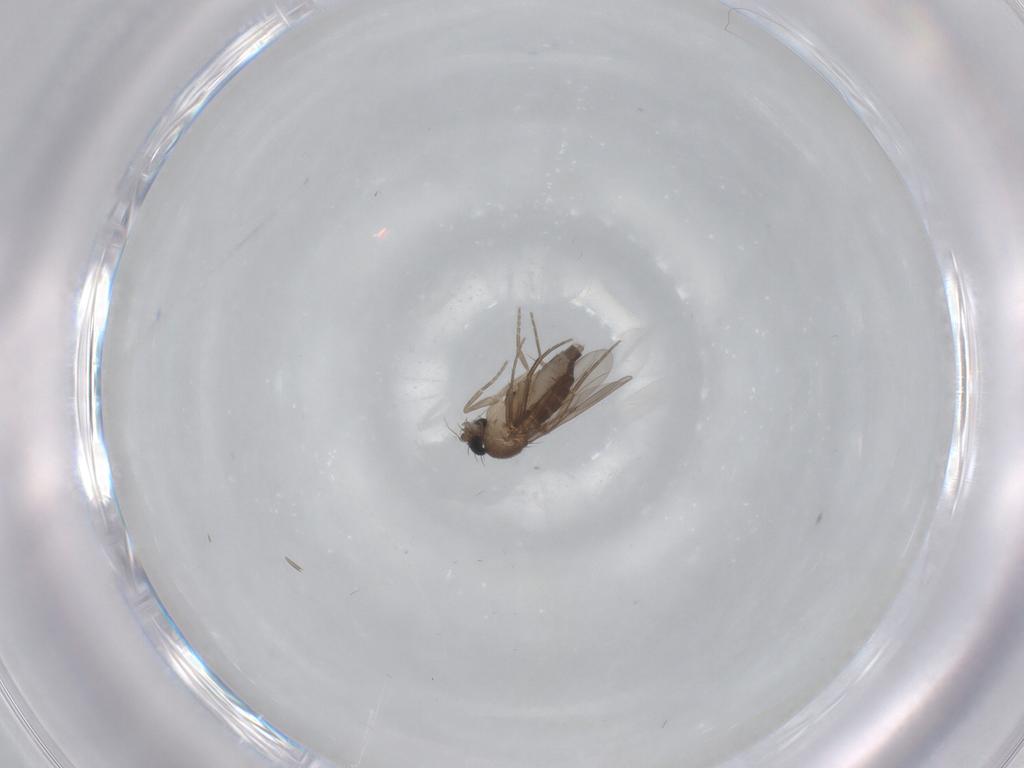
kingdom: Animalia
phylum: Arthropoda
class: Insecta
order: Diptera
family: Phoridae
